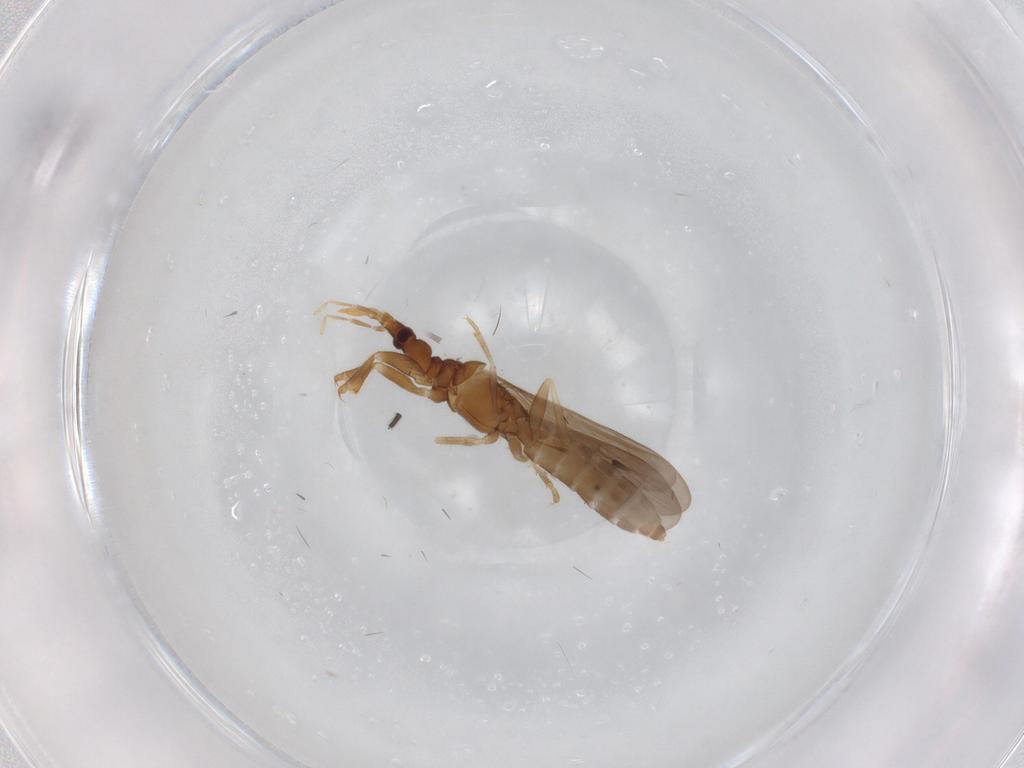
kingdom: Animalia
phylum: Arthropoda
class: Insecta
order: Hemiptera
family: Enicocephalidae
